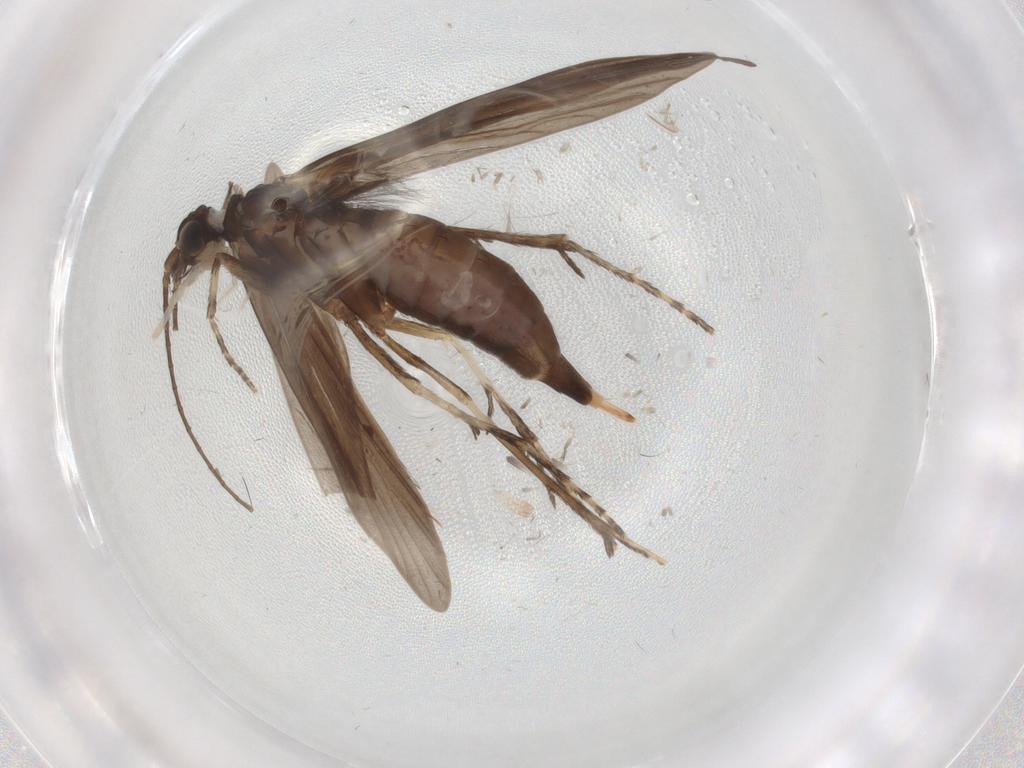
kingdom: Animalia
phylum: Arthropoda
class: Insecta
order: Trichoptera
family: Xiphocentronidae
